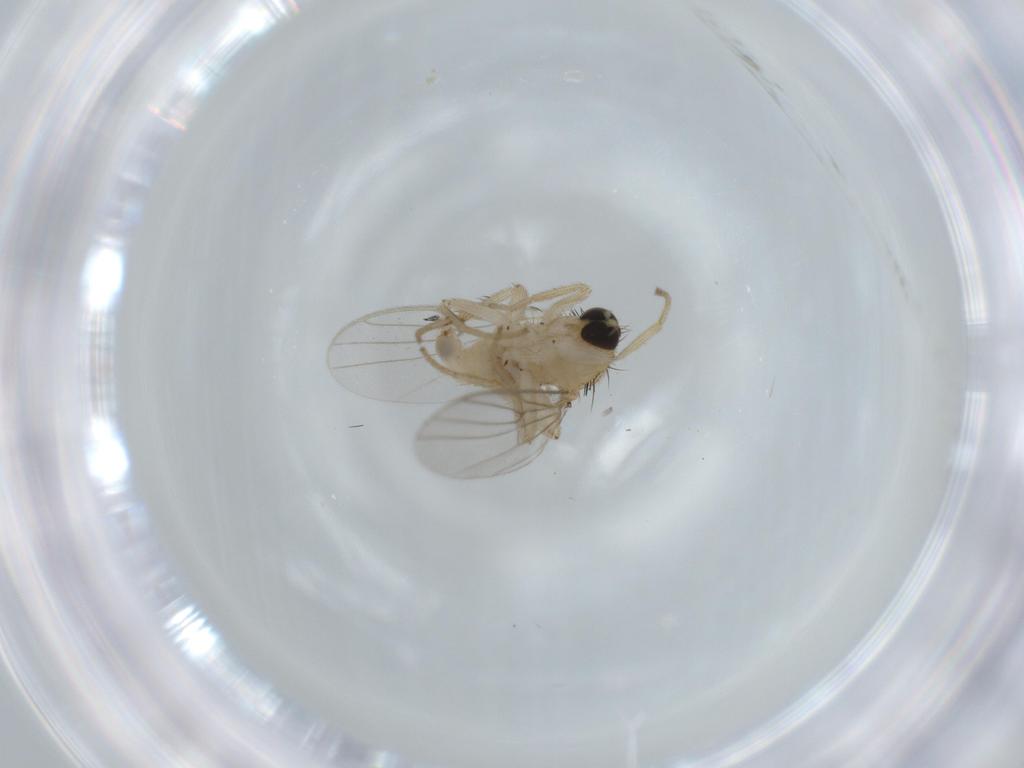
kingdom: Animalia
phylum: Arthropoda
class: Insecta
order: Diptera
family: Hybotidae
